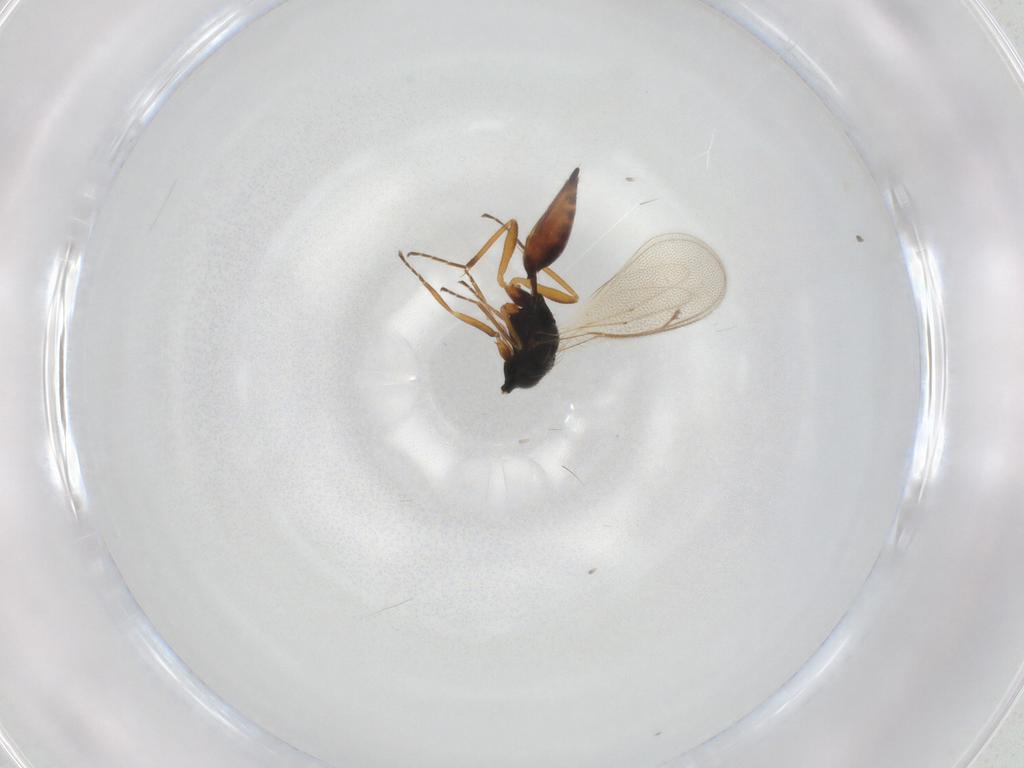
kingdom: Animalia
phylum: Arthropoda
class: Insecta
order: Hymenoptera
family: Eulophidae
